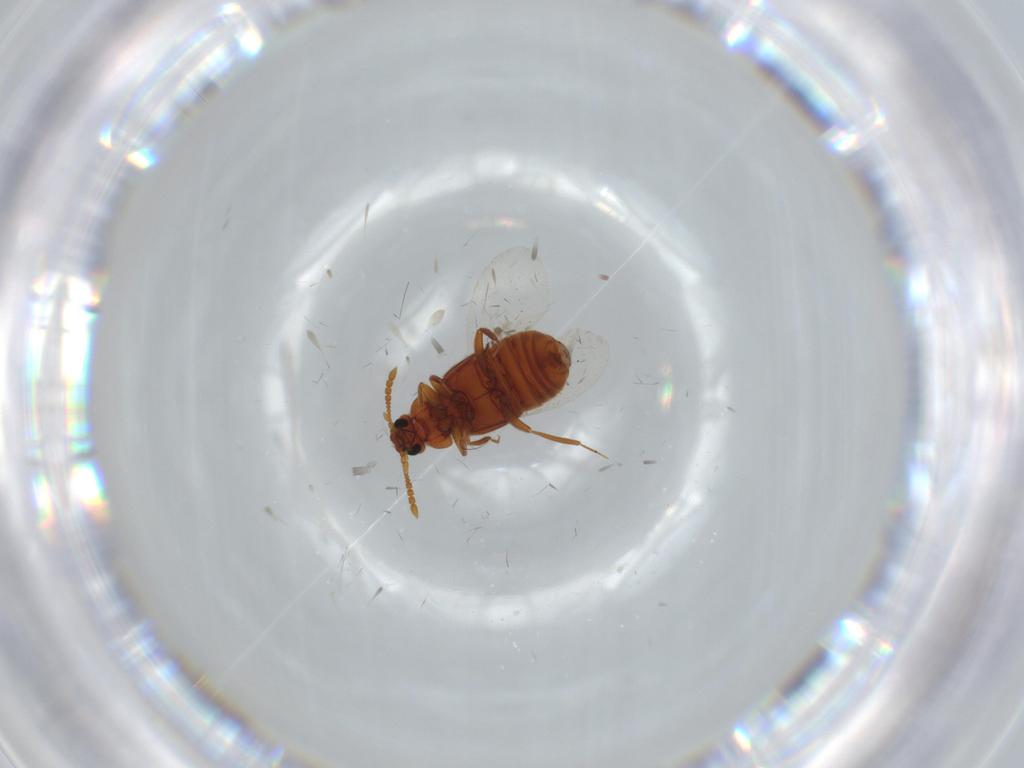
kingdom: Animalia
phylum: Arthropoda
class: Insecta
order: Coleoptera
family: Staphylinidae
